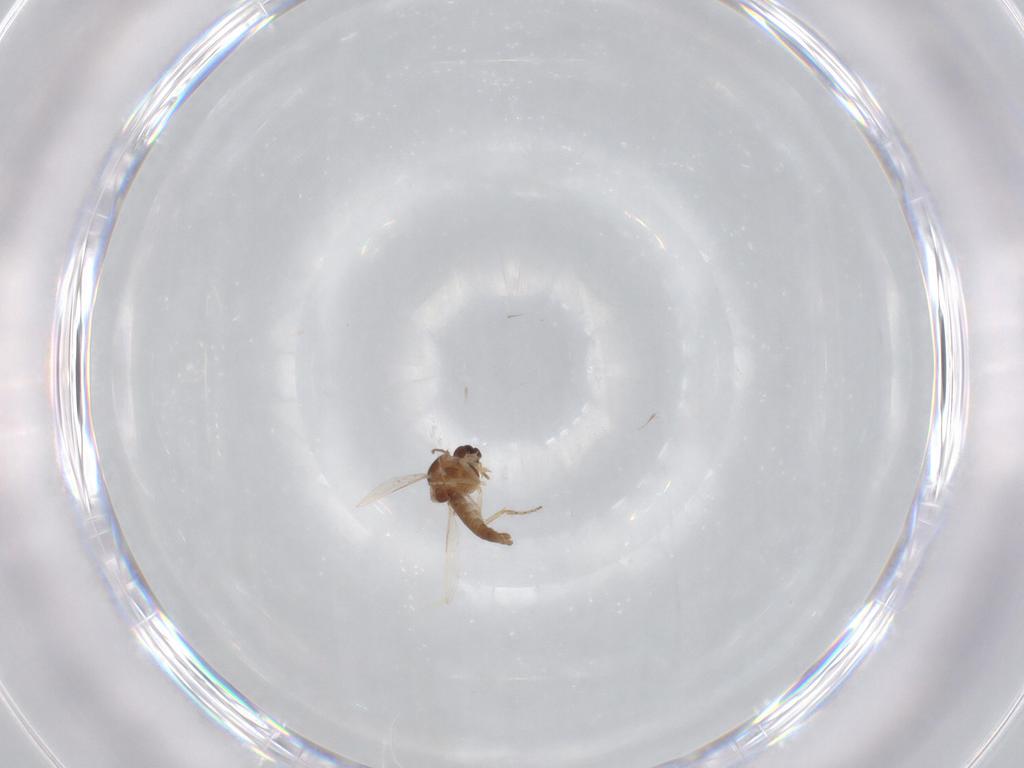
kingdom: Animalia
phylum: Arthropoda
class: Insecta
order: Diptera
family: Ceratopogonidae
